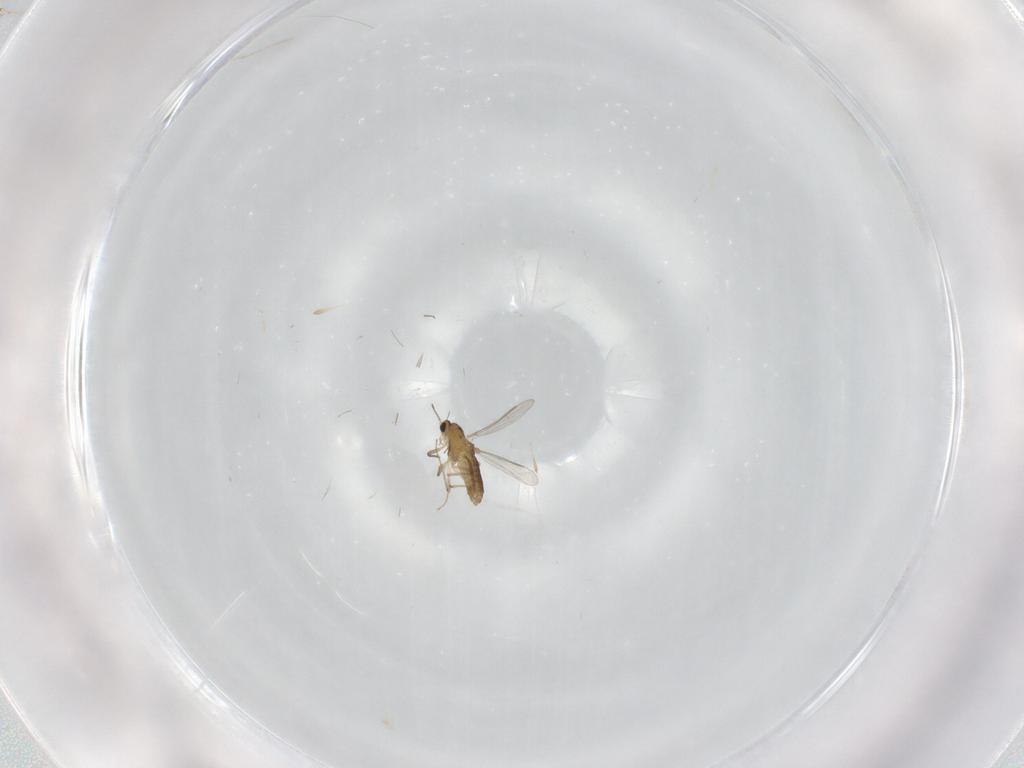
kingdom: Animalia
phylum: Arthropoda
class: Insecta
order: Diptera
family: Chironomidae
